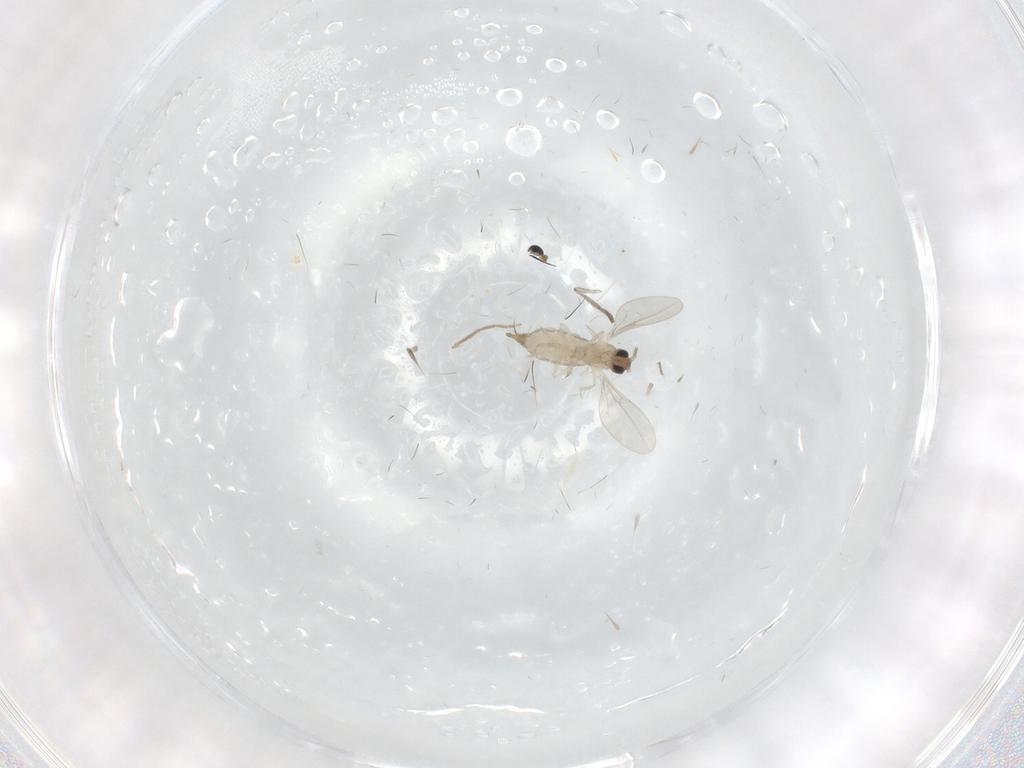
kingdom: Animalia
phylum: Arthropoda
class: Insecta
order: Diptera
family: Cecidomyiidae
